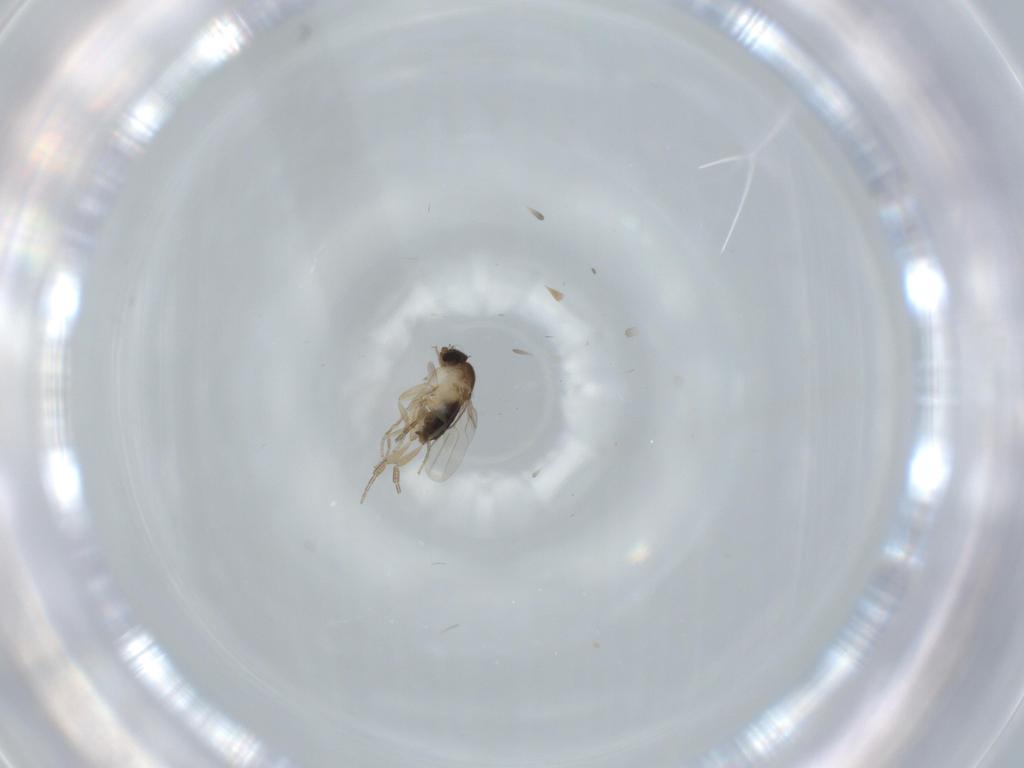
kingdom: Animalia
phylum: Arthropoda
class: Insecta
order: Diptera
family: Phoridae
